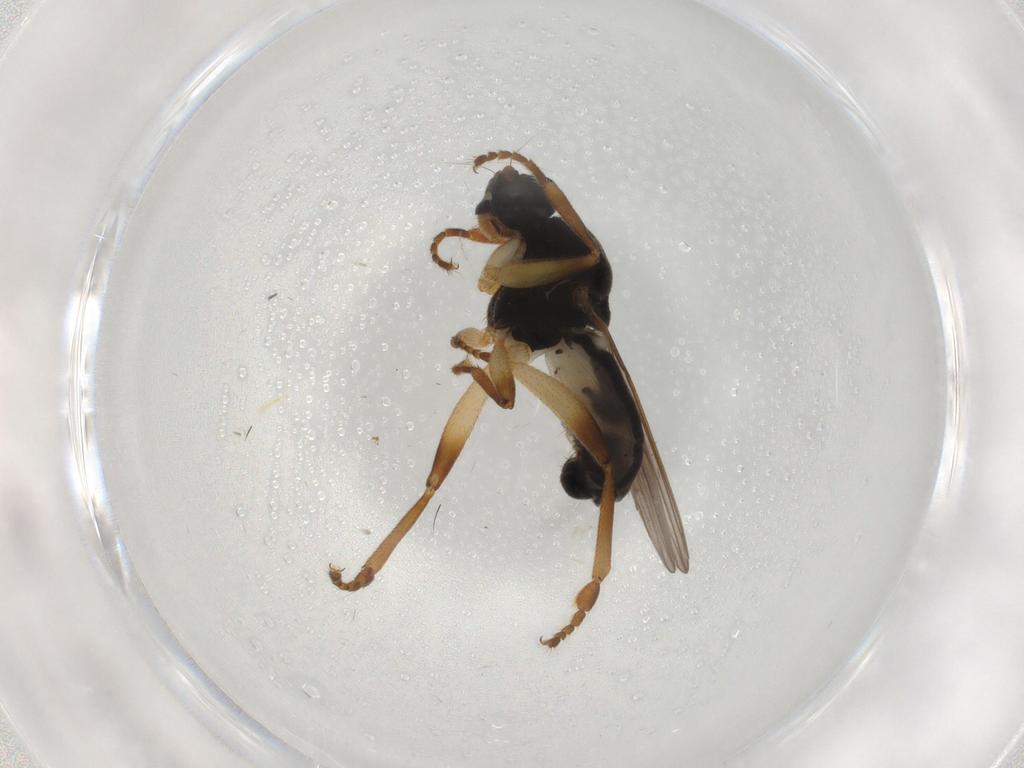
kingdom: Animalia
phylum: Arthropoda
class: Insecta
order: Diptera
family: Sphaeroceridae
